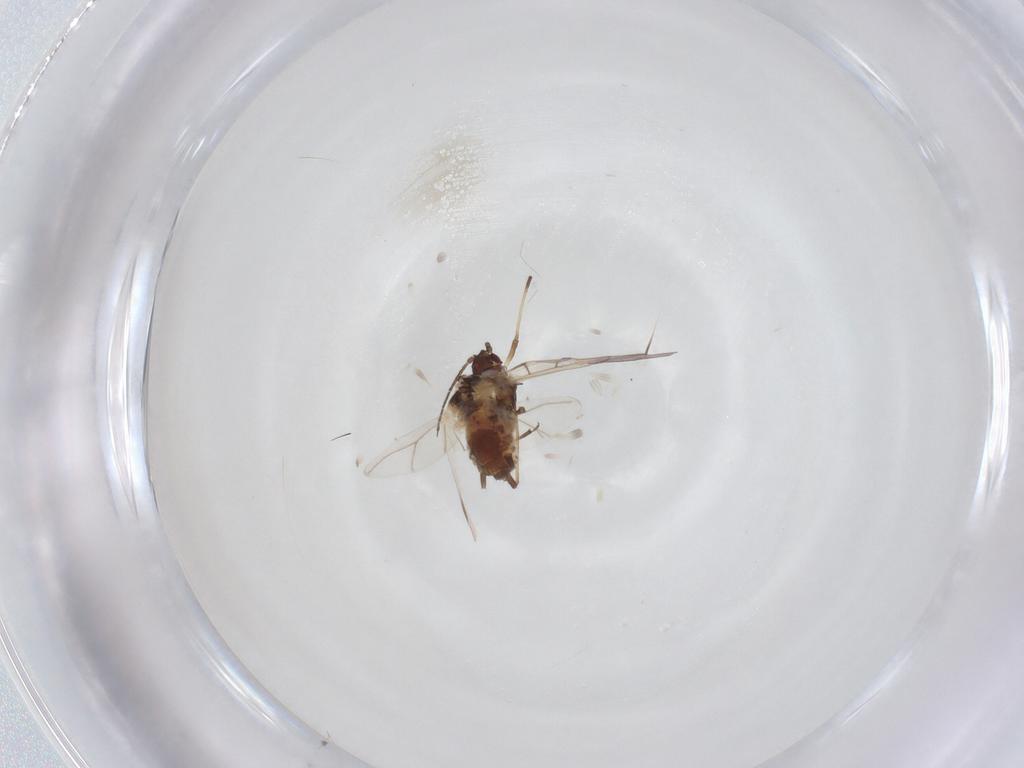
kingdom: Animalia
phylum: Arthropoda
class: Insecta
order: Hemiptera
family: Aphididae
